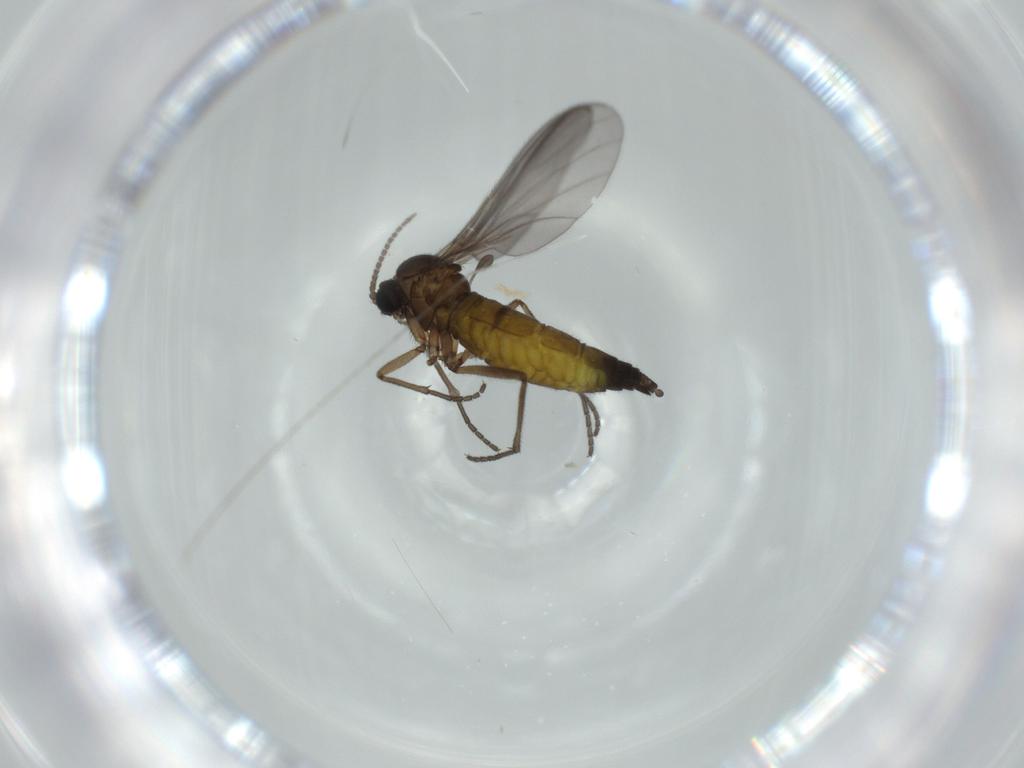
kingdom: Animalia
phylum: Arthropoda
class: Insecta
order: Diptera
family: Sciaridae
